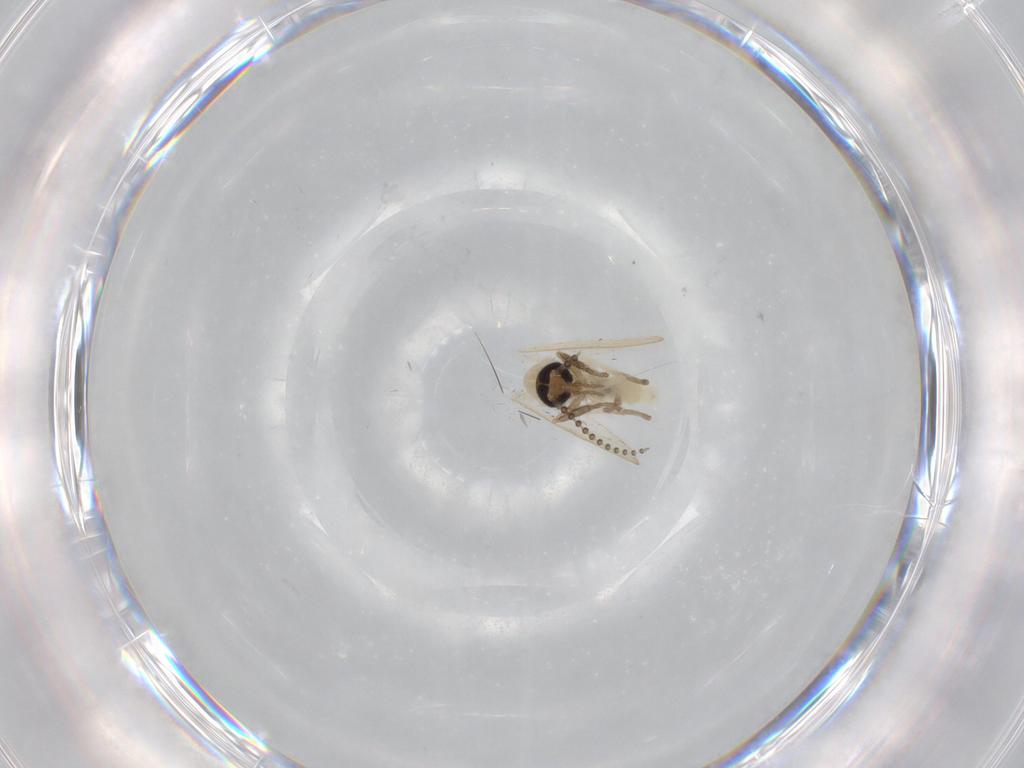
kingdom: Animalia
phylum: Arthropoda
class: Insecta
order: Diptera
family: Psychodidae
